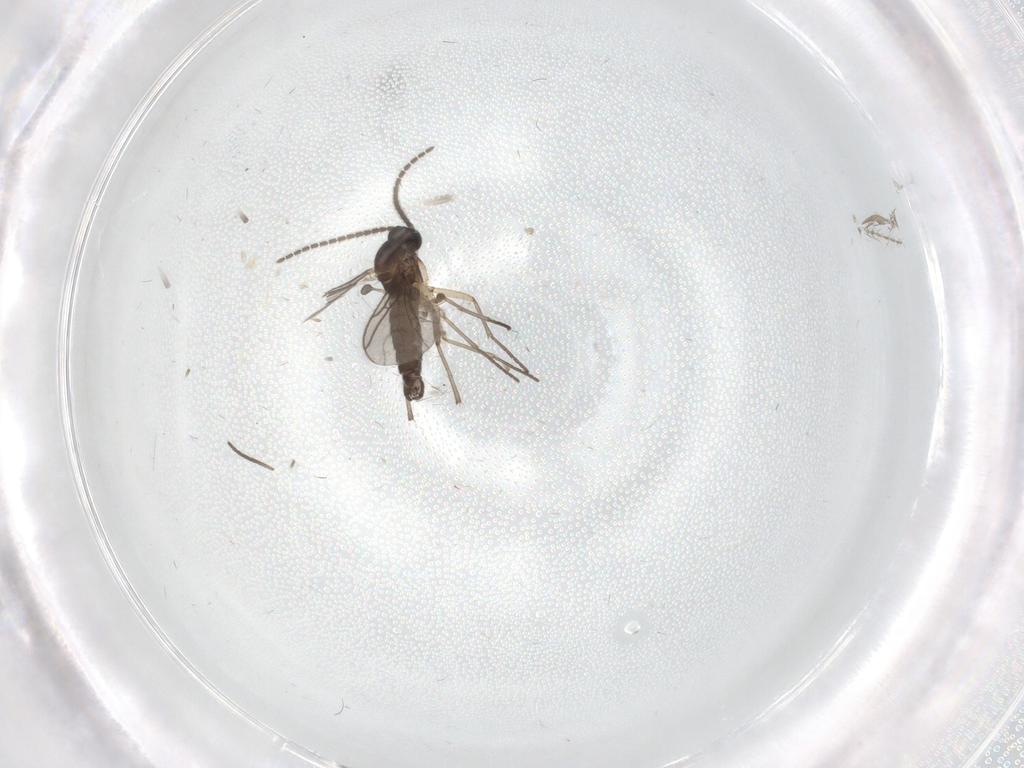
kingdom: Animalia
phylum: Arthropoda
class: Insecta
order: Diptera
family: Sciaridae
